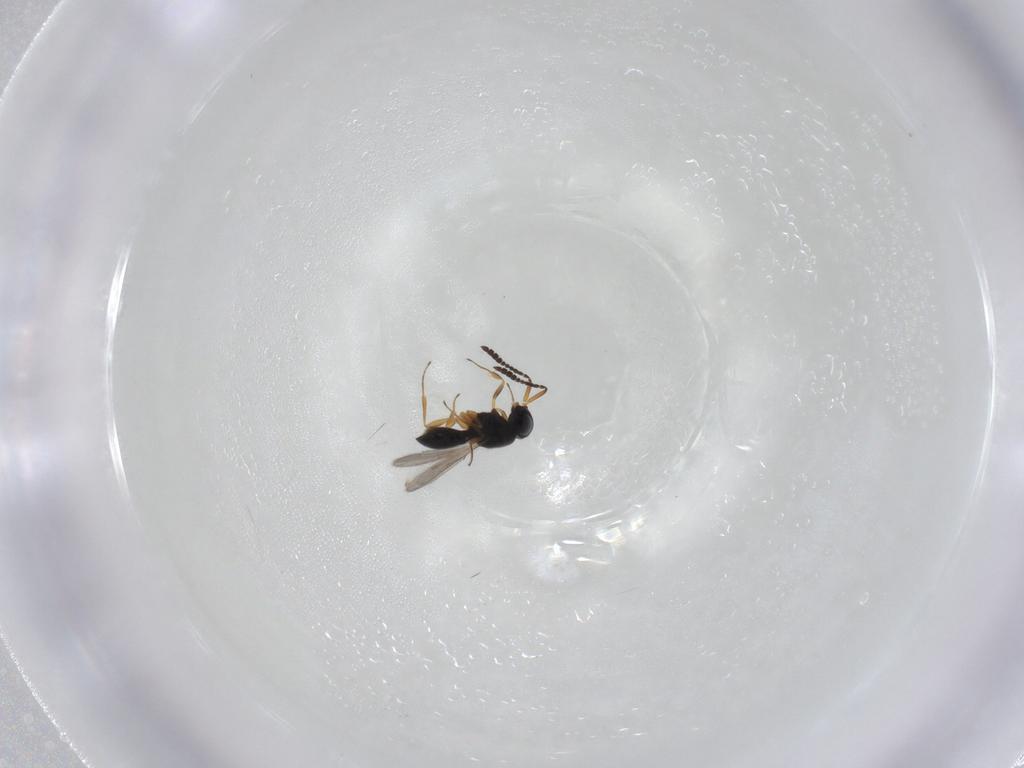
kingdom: Animalia
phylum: Arthropoda
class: Insecta
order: Hymenoptera
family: Scelionidae
